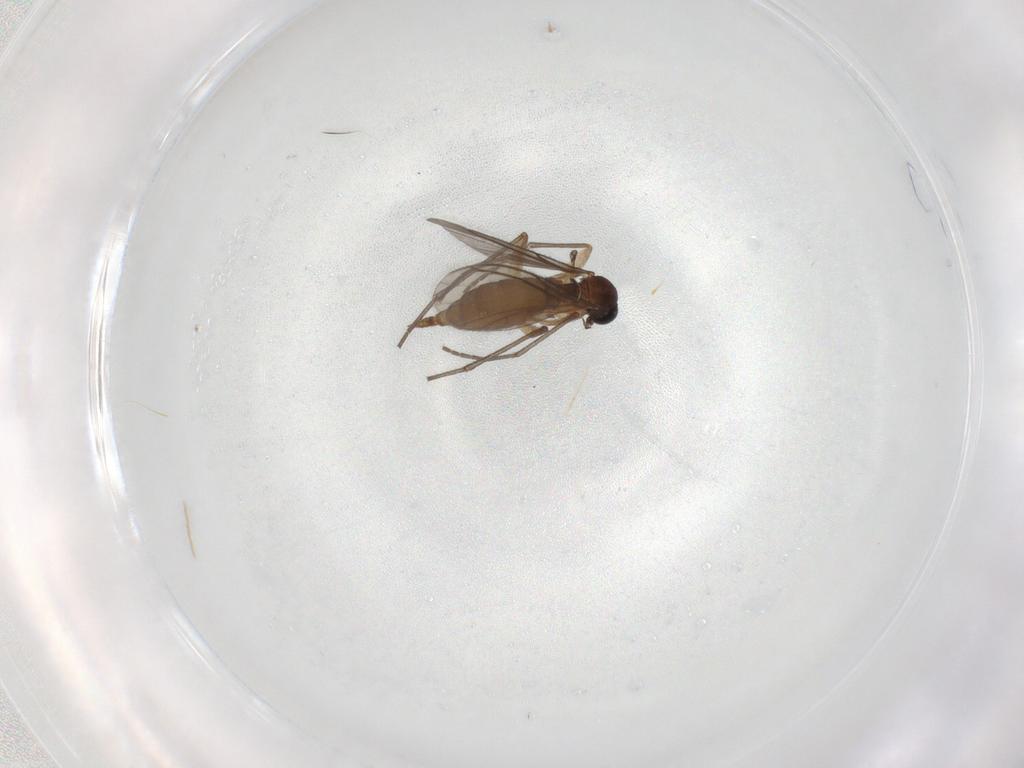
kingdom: Animalia
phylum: Arthropoda
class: Insecta
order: Diptera
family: Sciaridae
